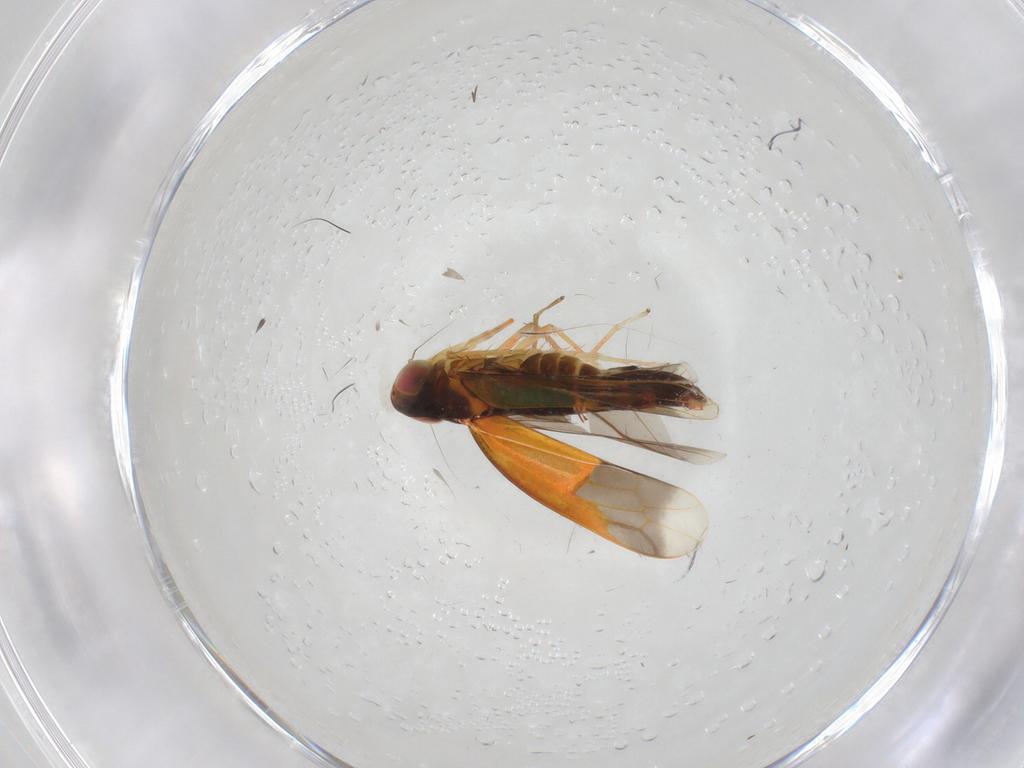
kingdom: Animalia
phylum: Arthropoda
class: Insecta
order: Hemiptera
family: Cicadellidae
